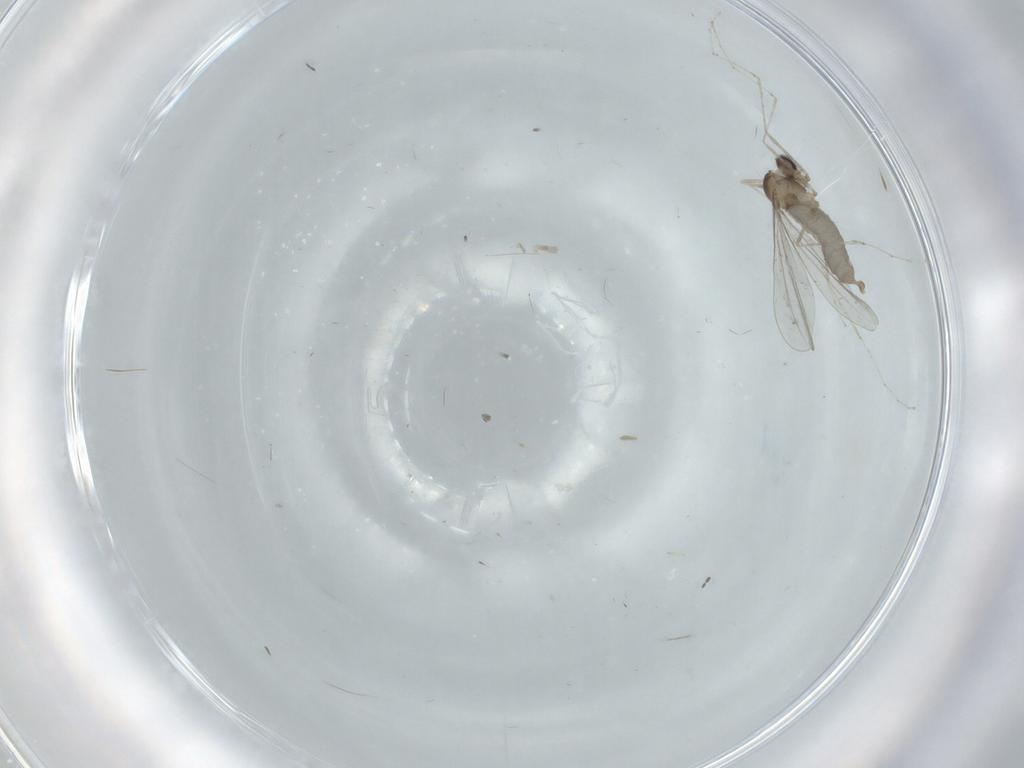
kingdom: Animalia
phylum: Arthropoda
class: Insecta
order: Diptera
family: Cecidomyiidae
